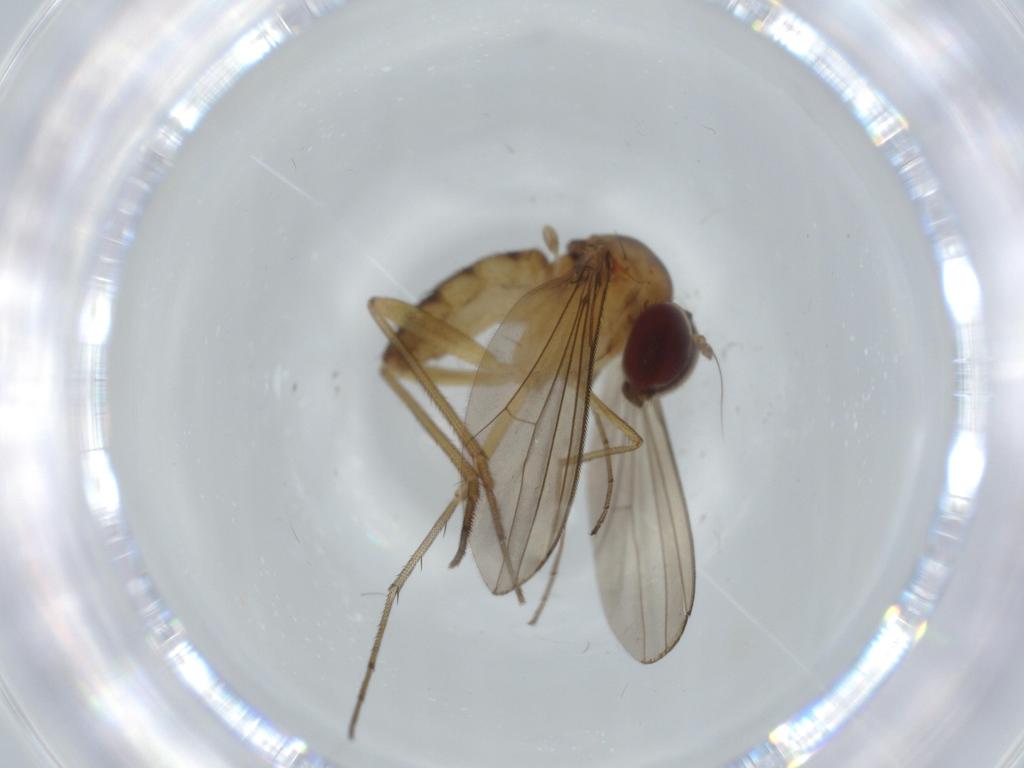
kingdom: Animalia
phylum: Arthropoda
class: Insecta
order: Diptera
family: Dolichopodidae
